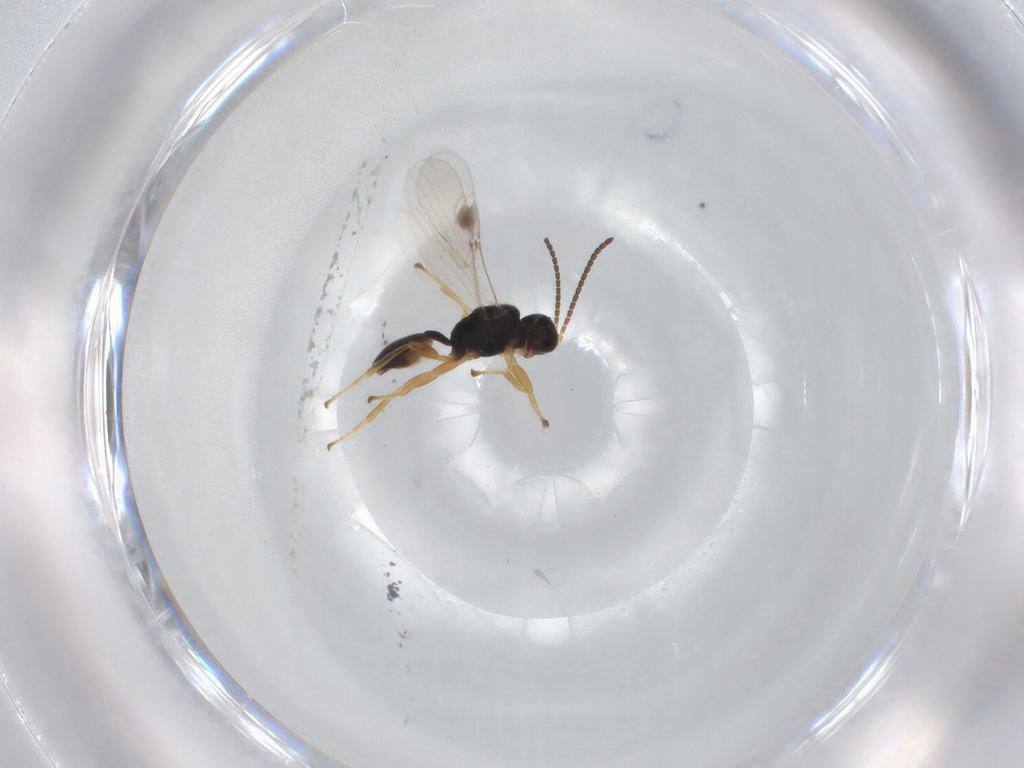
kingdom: Animalia
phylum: Arthropoda
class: Insecta
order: Hymenoptera
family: Braconidae
